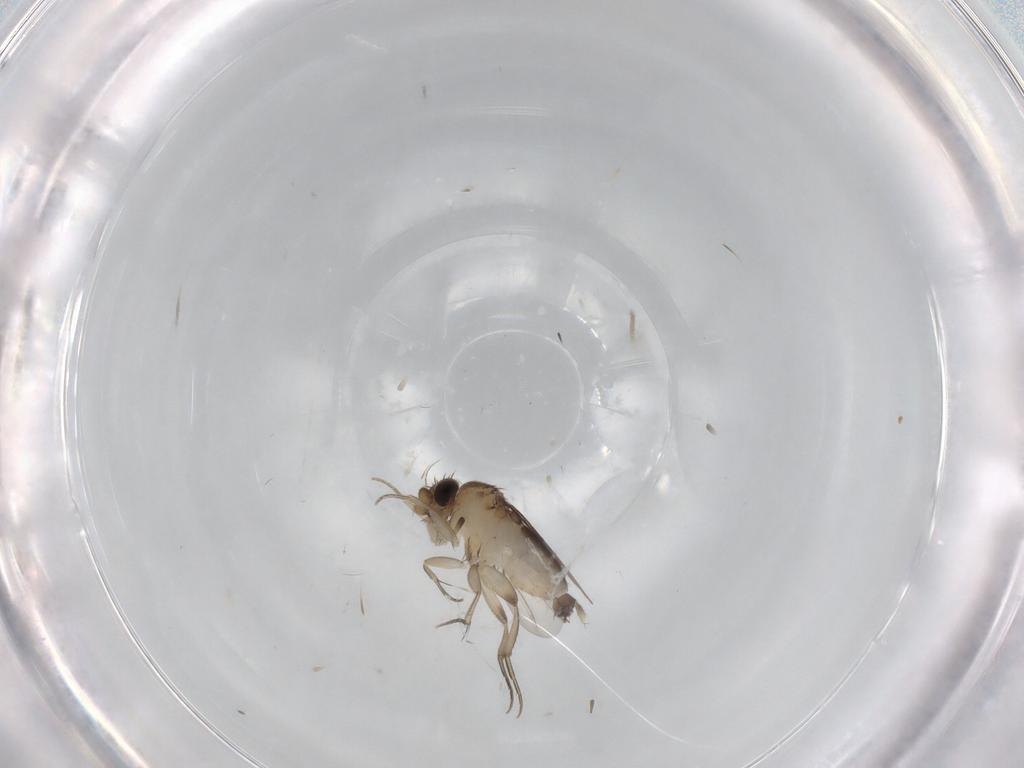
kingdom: Animalia
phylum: Arthropoda
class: Insecta
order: Diptera
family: Phoridae
